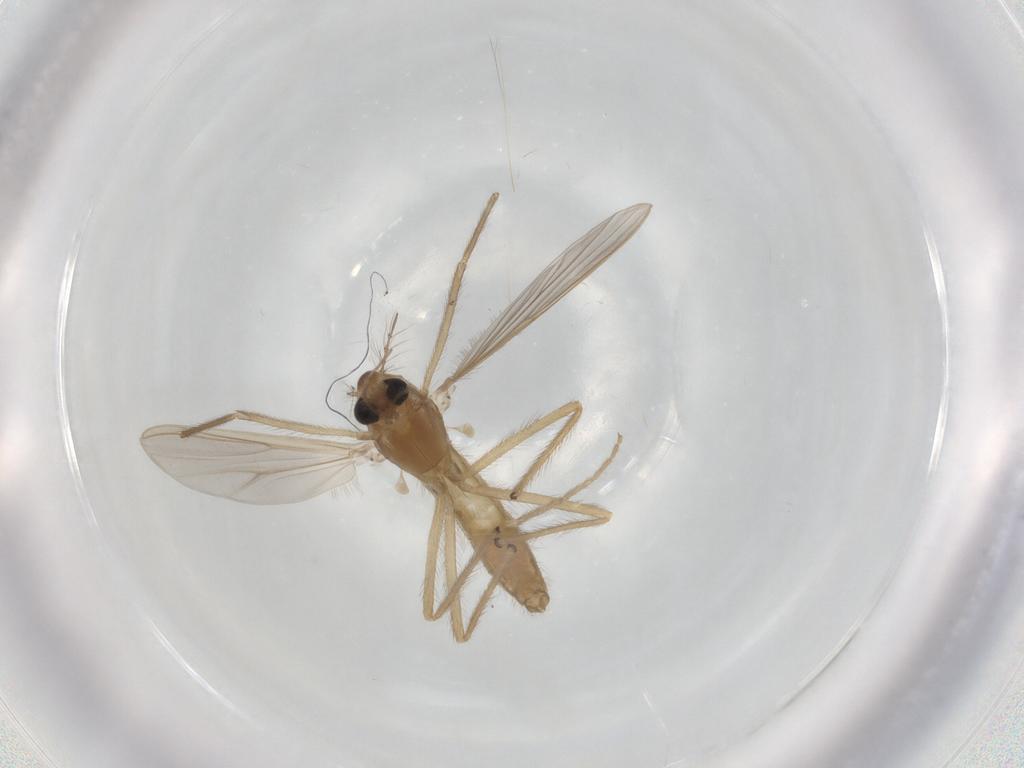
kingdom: Animalia
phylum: Arthropoda
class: Insecta
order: Diptera
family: Chironomidae
